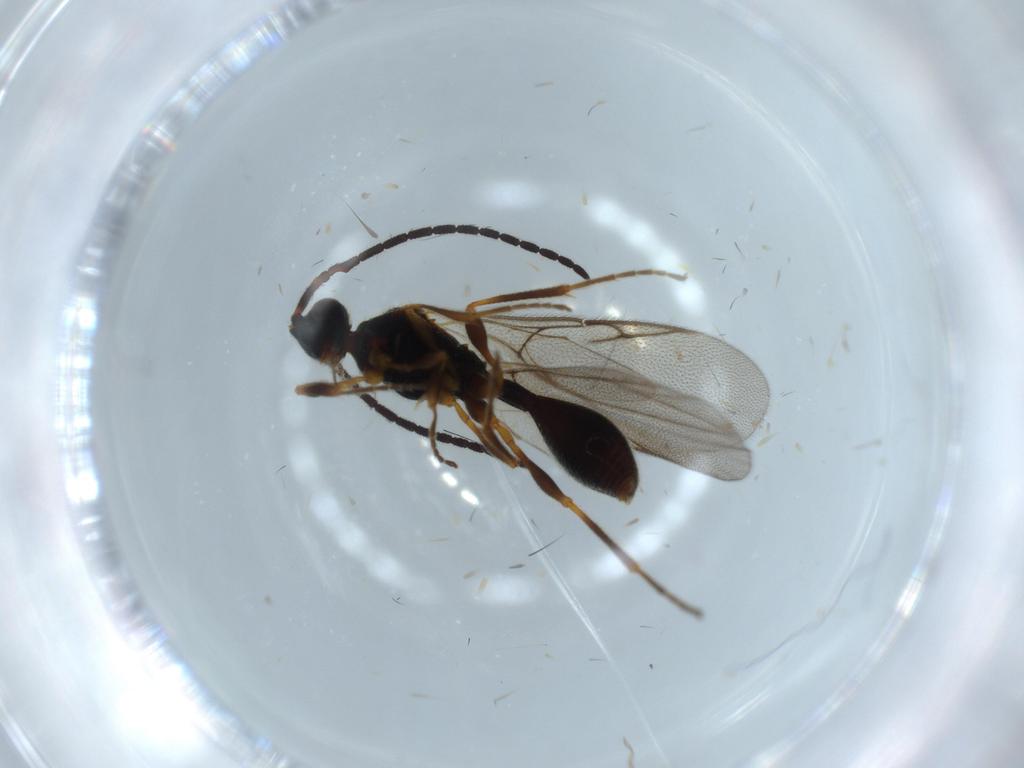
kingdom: Animalia
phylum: Arthropoda
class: Insecta
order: Hymenoptera
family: Diapriidae
